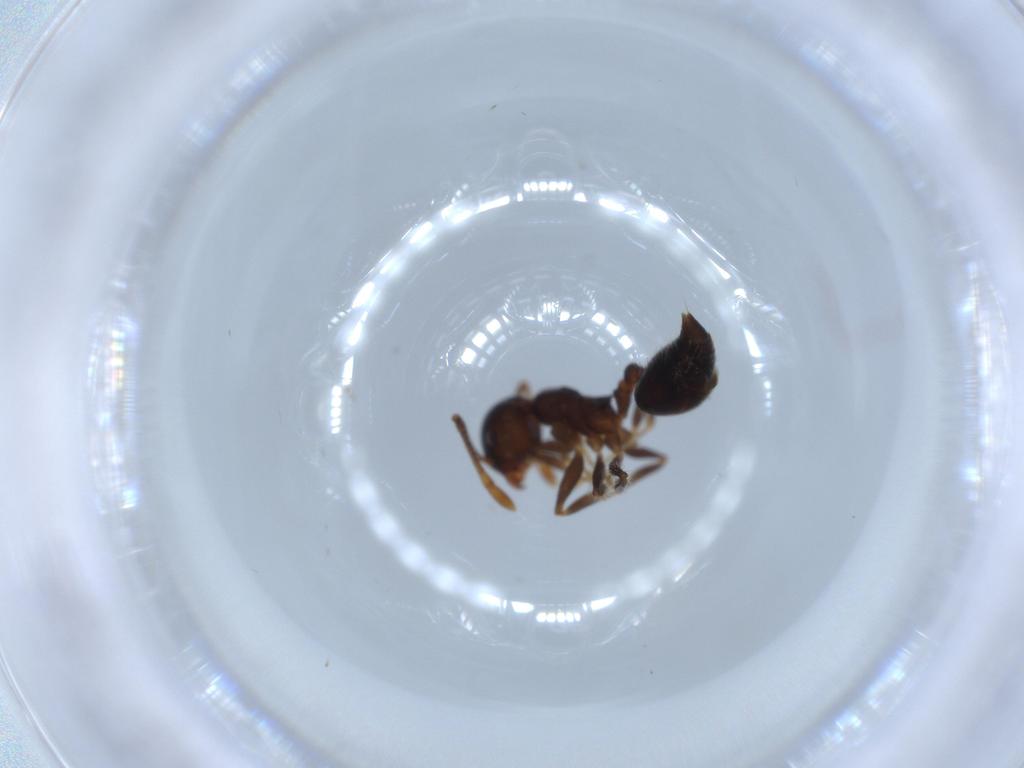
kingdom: Animalia
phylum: Arthropoda
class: Insecta
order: Hymenoptera
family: Formicidae
